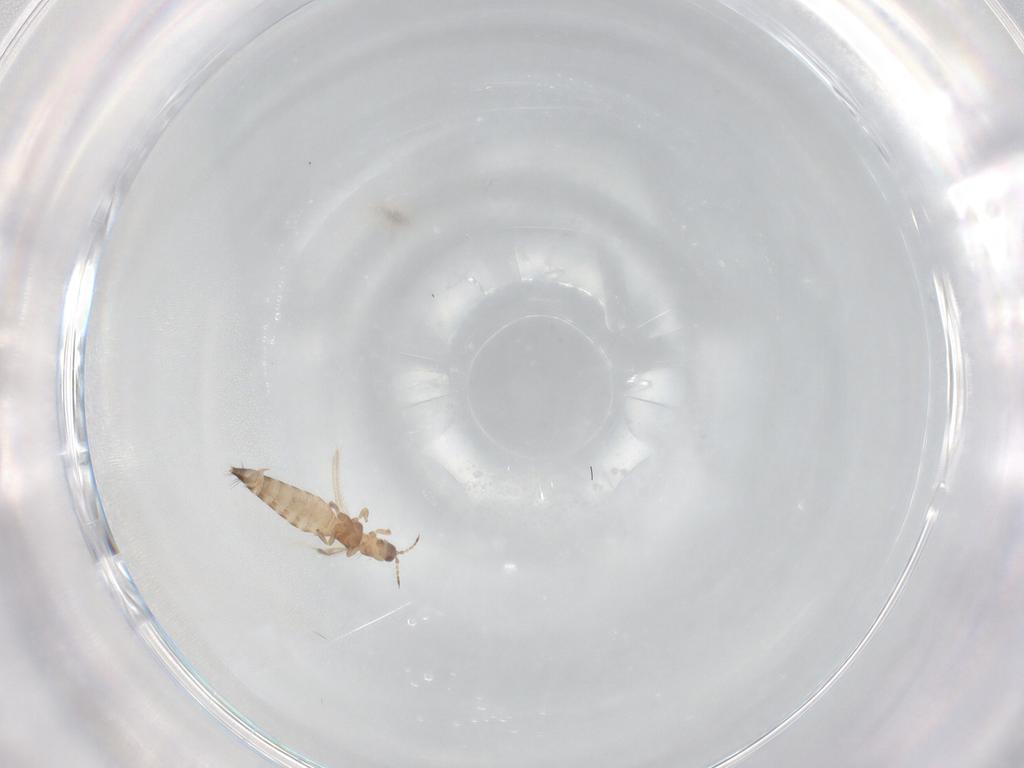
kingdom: Animalia
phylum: Arthropoda
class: Insecta
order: Thysanoptera
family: Thripidae
